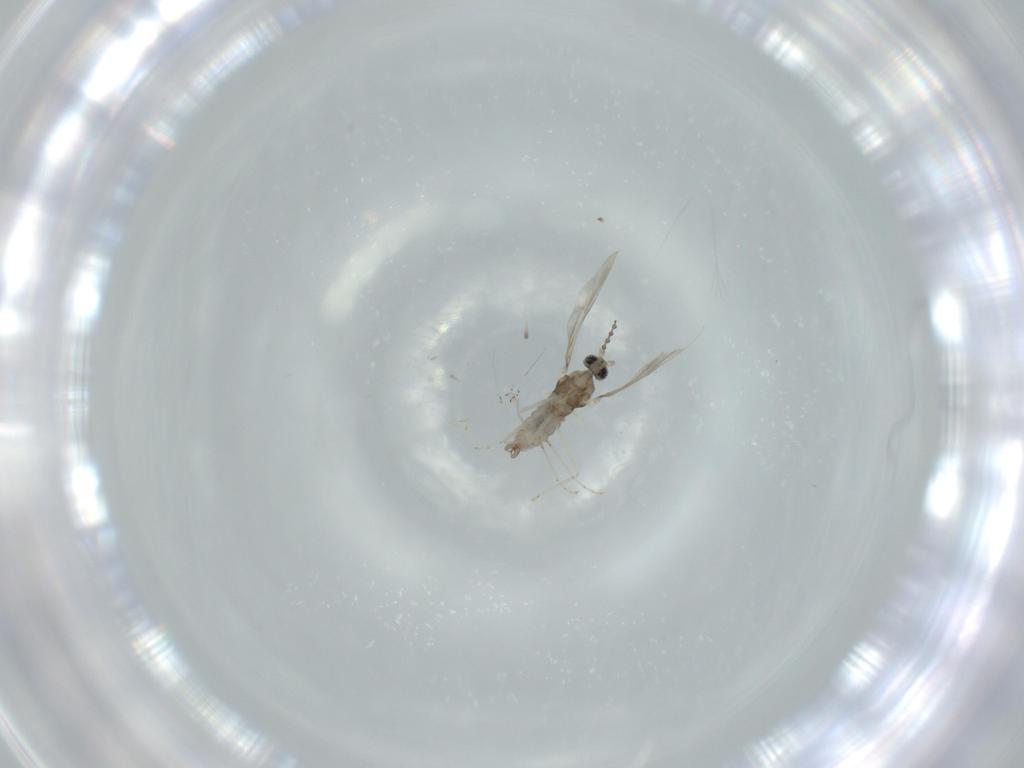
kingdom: Animalia
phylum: Arthropoda
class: Insecta
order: Diptera
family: Cecidomyiidae
